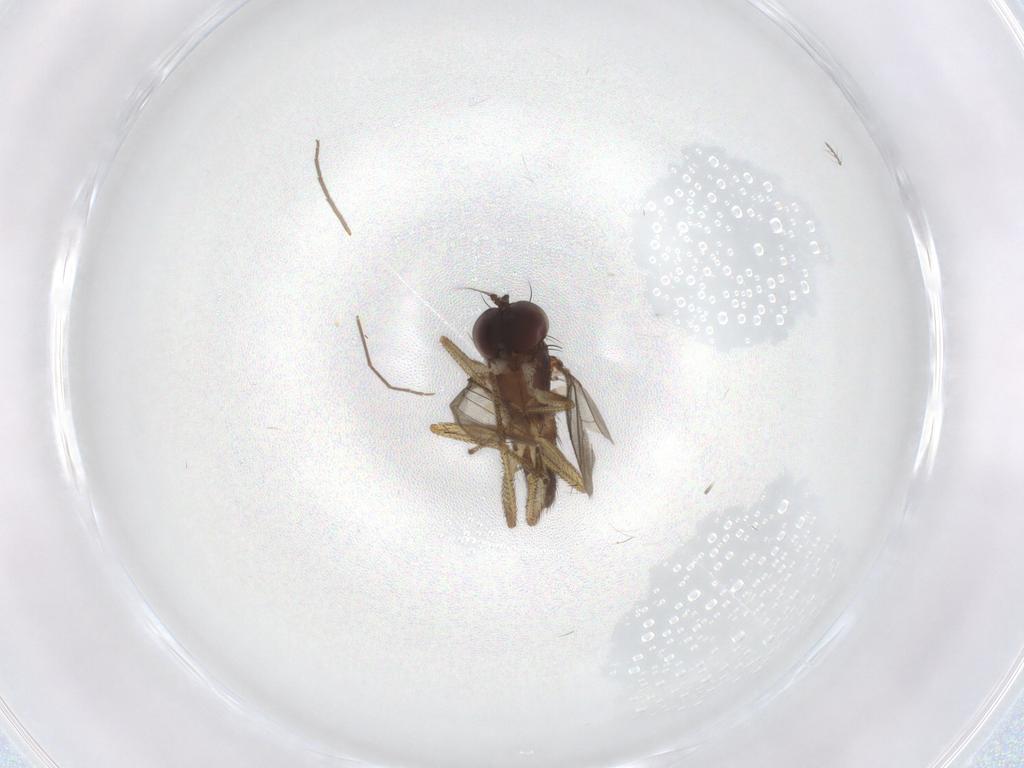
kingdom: Animalia
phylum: Arthropoda
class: Insecta
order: Diptera
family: Chironomidae
